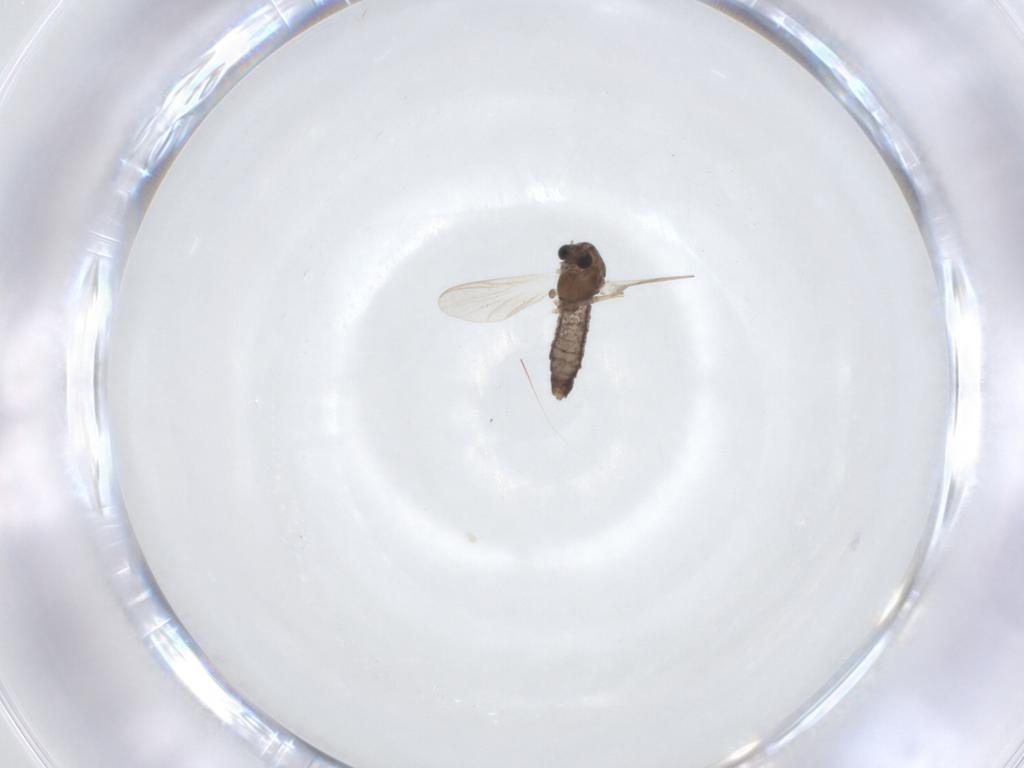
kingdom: Animalia
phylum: Arthropoda
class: Insecta
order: Diptera
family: Chironomidae
